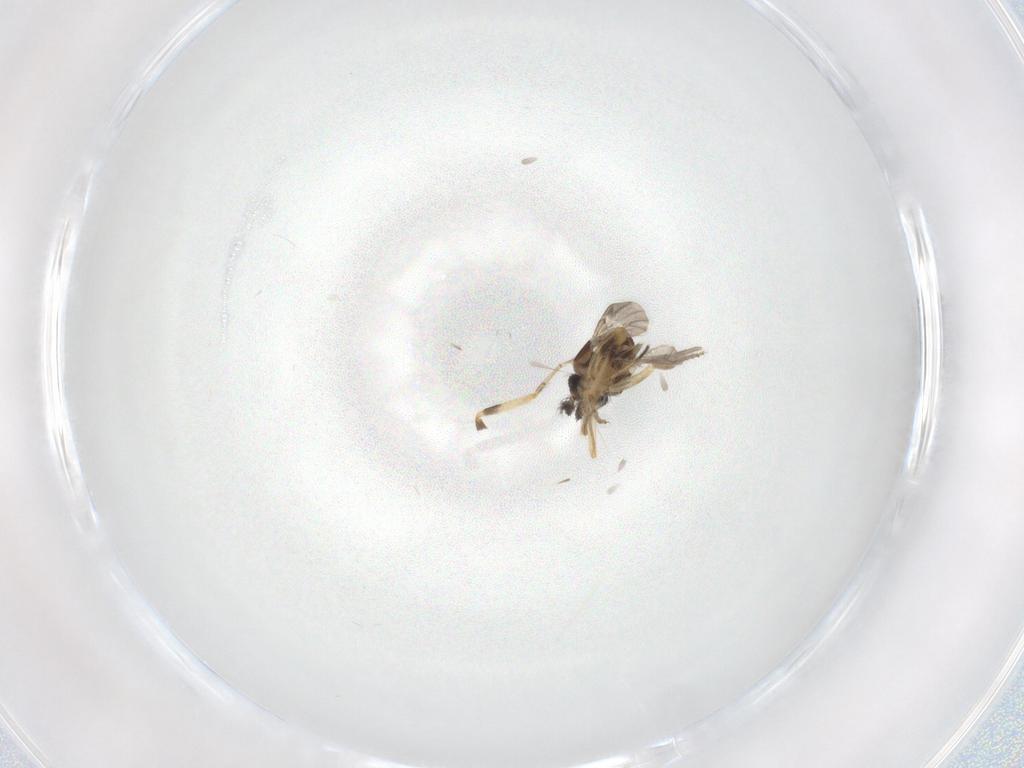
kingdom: Animalia
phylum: Arthropoda
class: Insecta
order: Diptera
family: Ceratopogonidae
